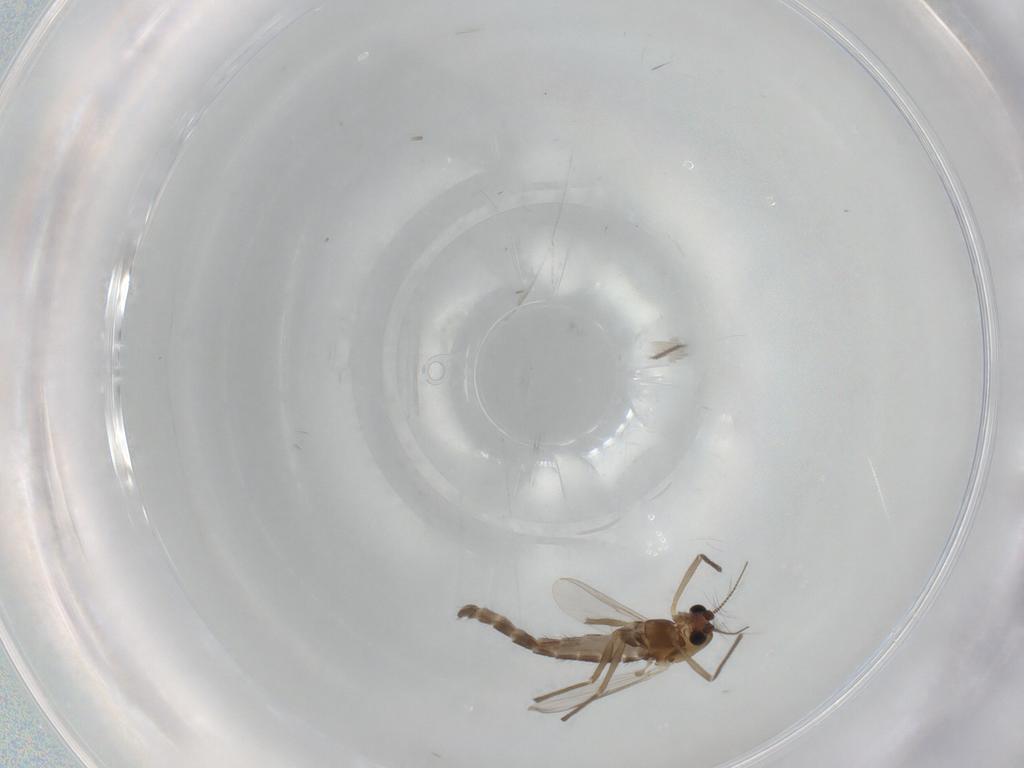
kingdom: Animalia
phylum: Arthropoda
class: Insecta
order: Diptera
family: Chironomidae
